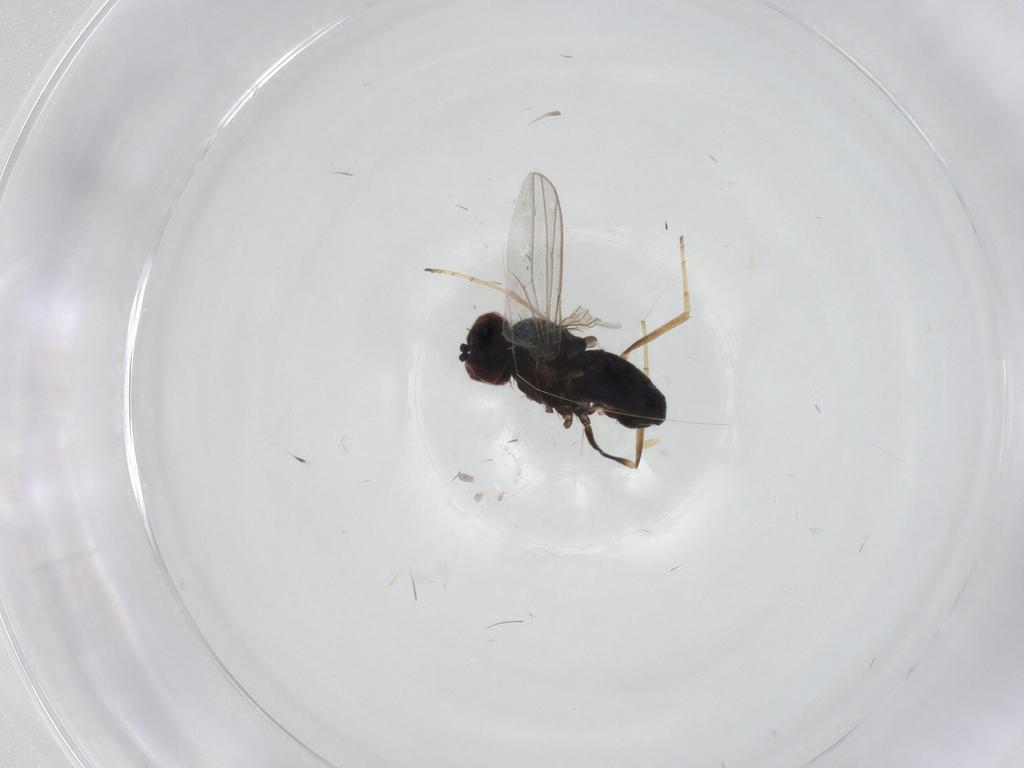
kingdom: Animalia
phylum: Arthropoda
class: Insecta
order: Diptera
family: Dolichopodidae
